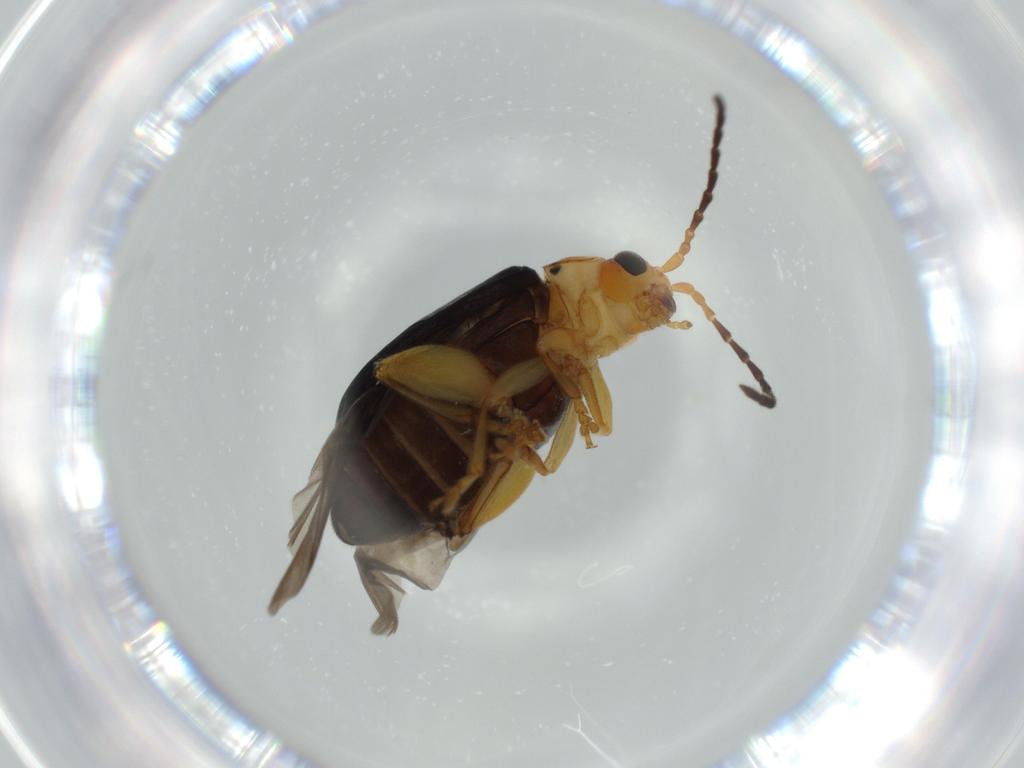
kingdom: Animalia
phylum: Arthropoda
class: Insecta
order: Coleoptera
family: Chrysomelidae
